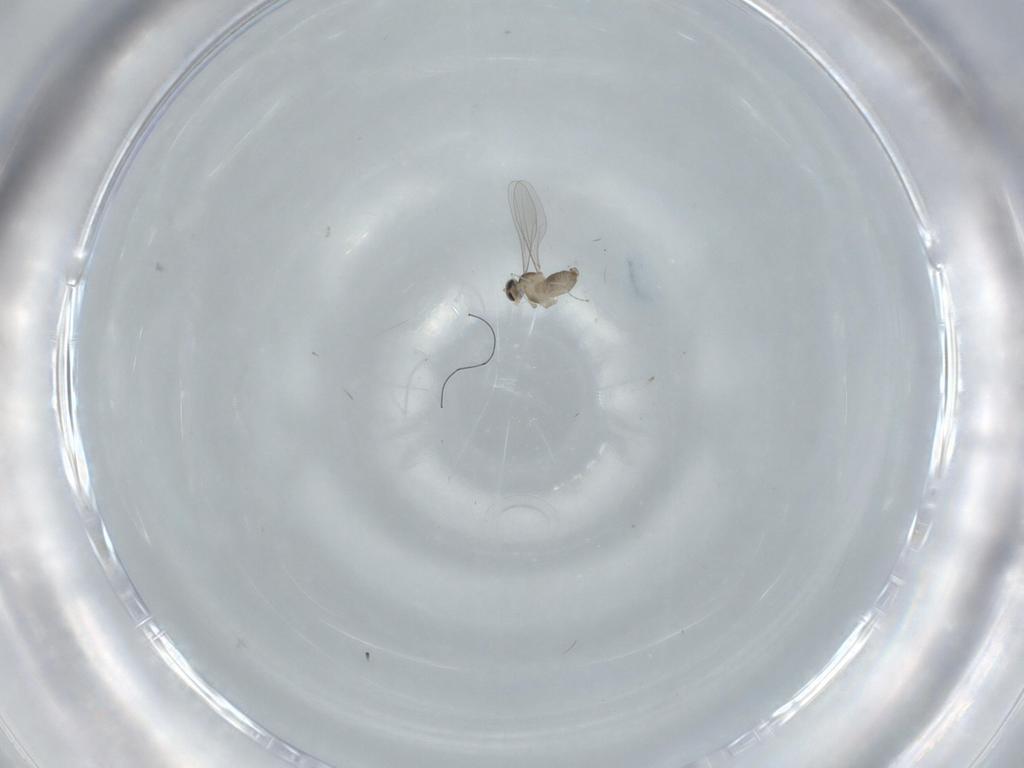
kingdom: Animalia
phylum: Arthropoda
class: Insecta
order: Diptera
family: Cecidomyiidae
